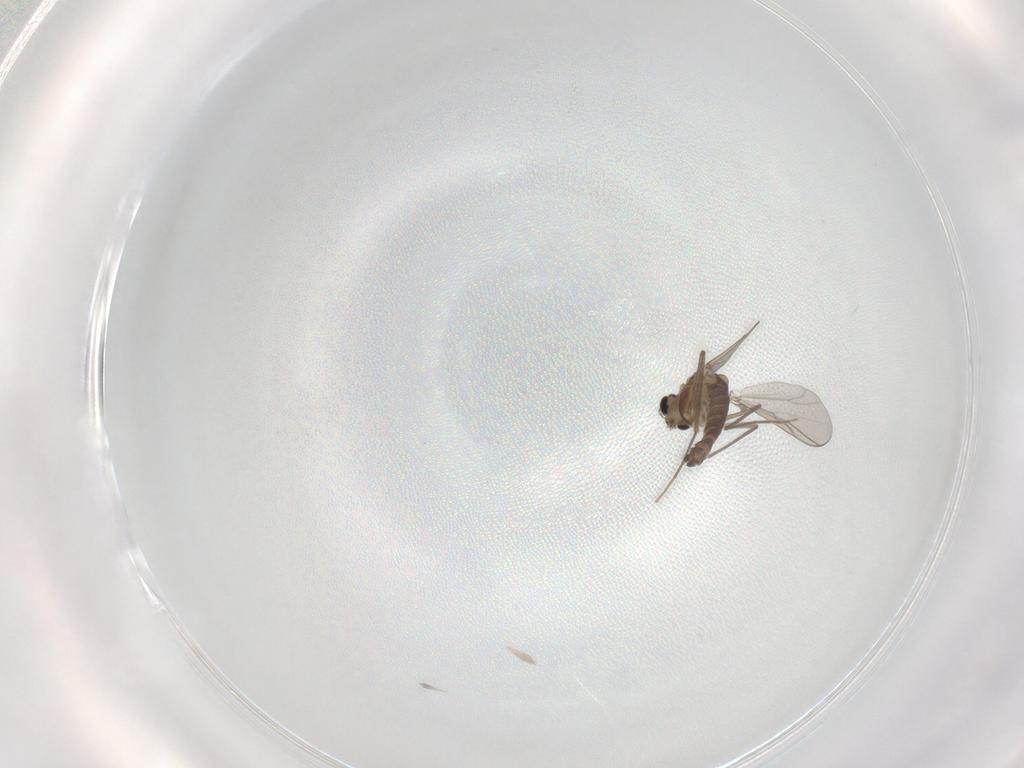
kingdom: Animalia
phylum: Arthropoda
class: Insecta
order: Diptera
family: Chironomidae
